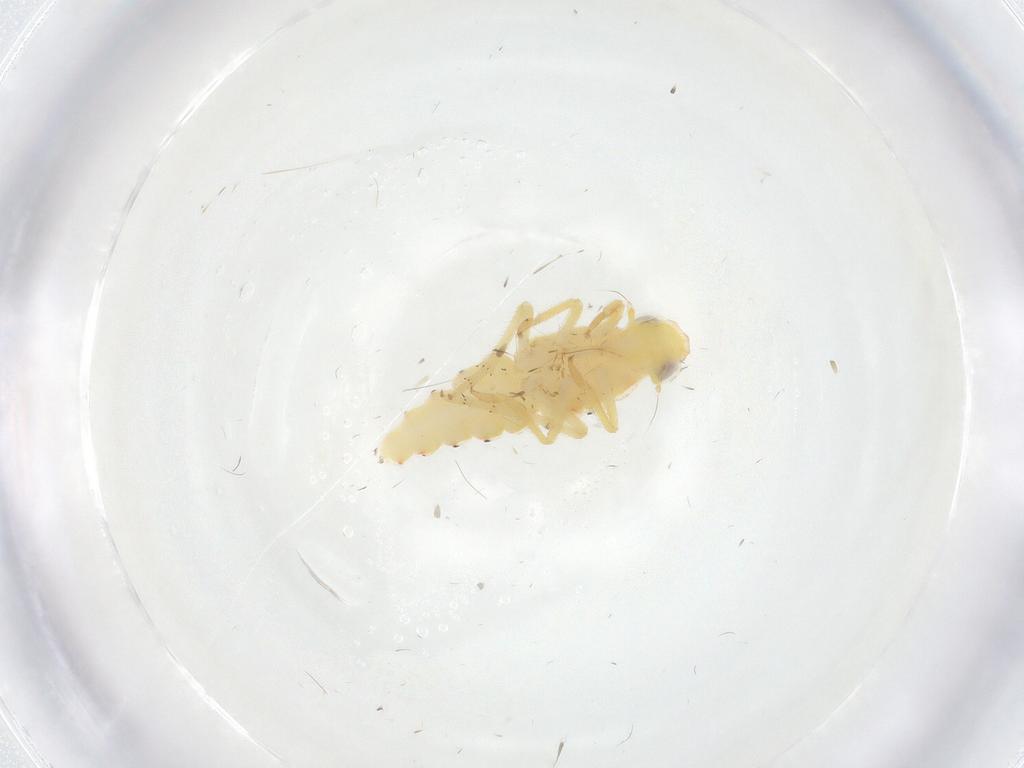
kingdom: Animalia
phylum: Arthropoda
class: Insecta
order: Hemiptera
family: Tropiduchidae
